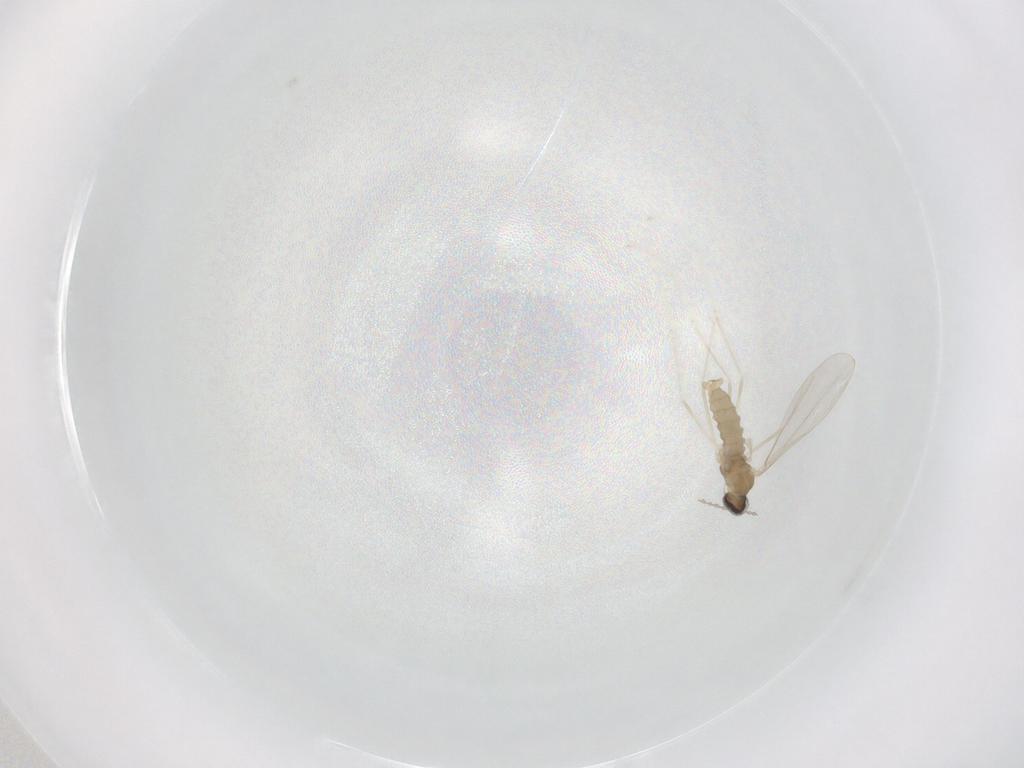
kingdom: Animalia
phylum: Arthropoda
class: Insecta
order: Diptera
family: Cecidomyiidae
